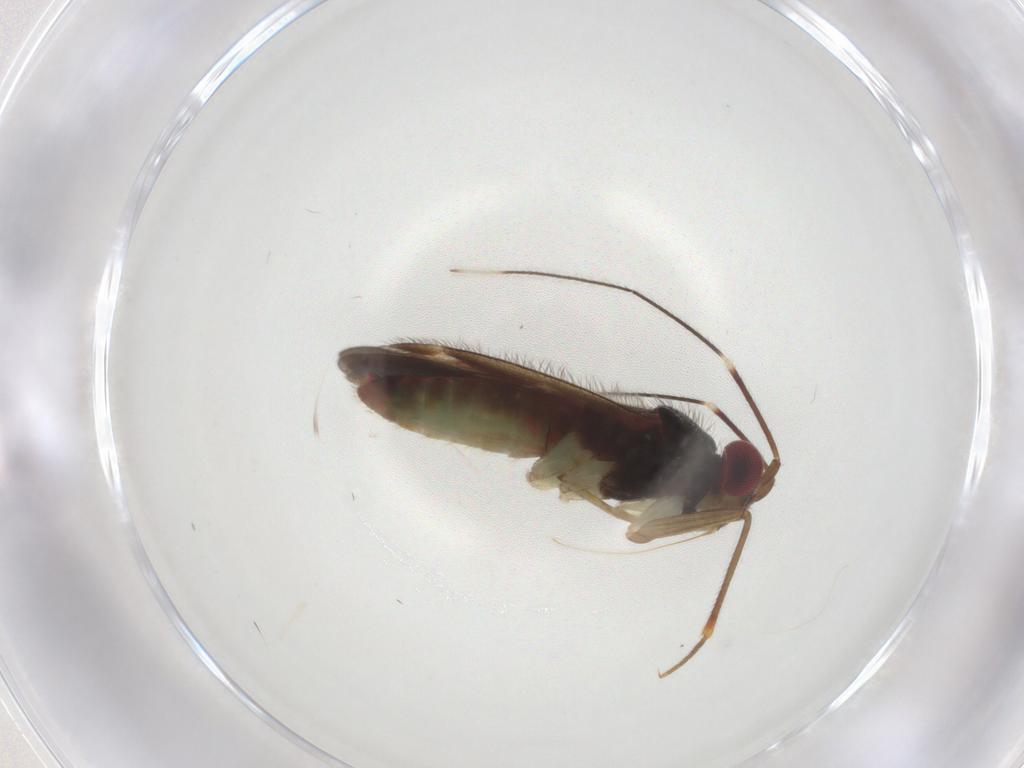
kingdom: Animalia
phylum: Arthropoda
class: Insecta
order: Hemiptera
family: Miridae
